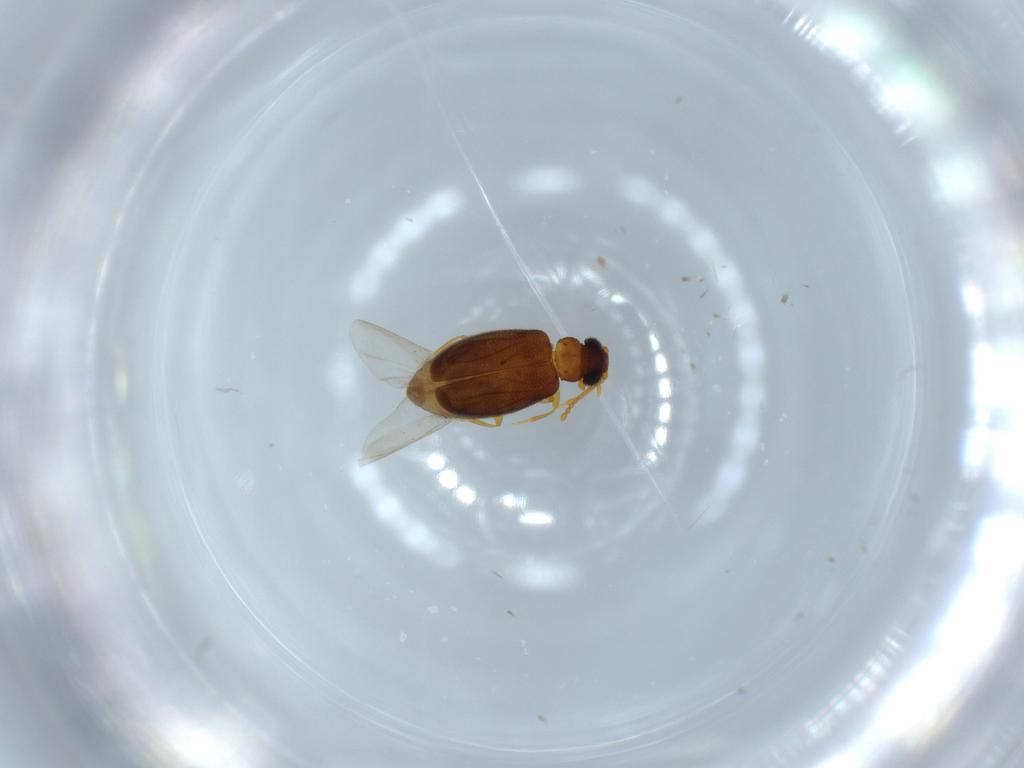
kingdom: Animalia
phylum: Arthropoda
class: Insecta
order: Coleoptera
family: Aderidae
